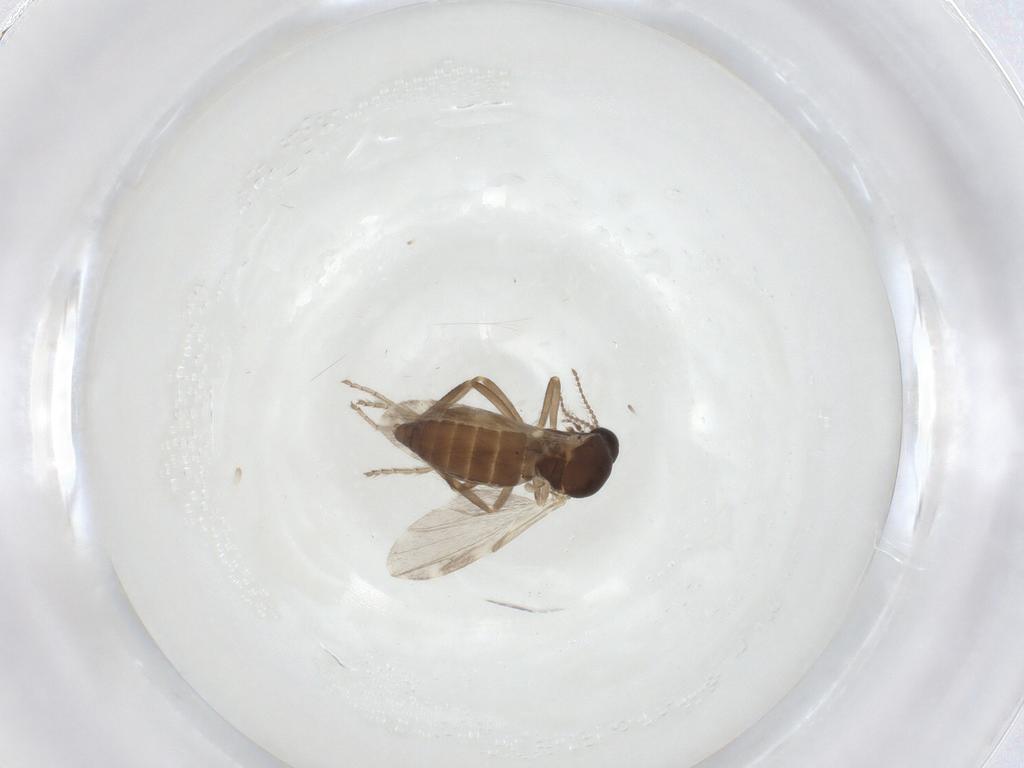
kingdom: Animalia
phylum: Arthropoda
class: Insecta
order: Diptera
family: Ceratopogonidae
